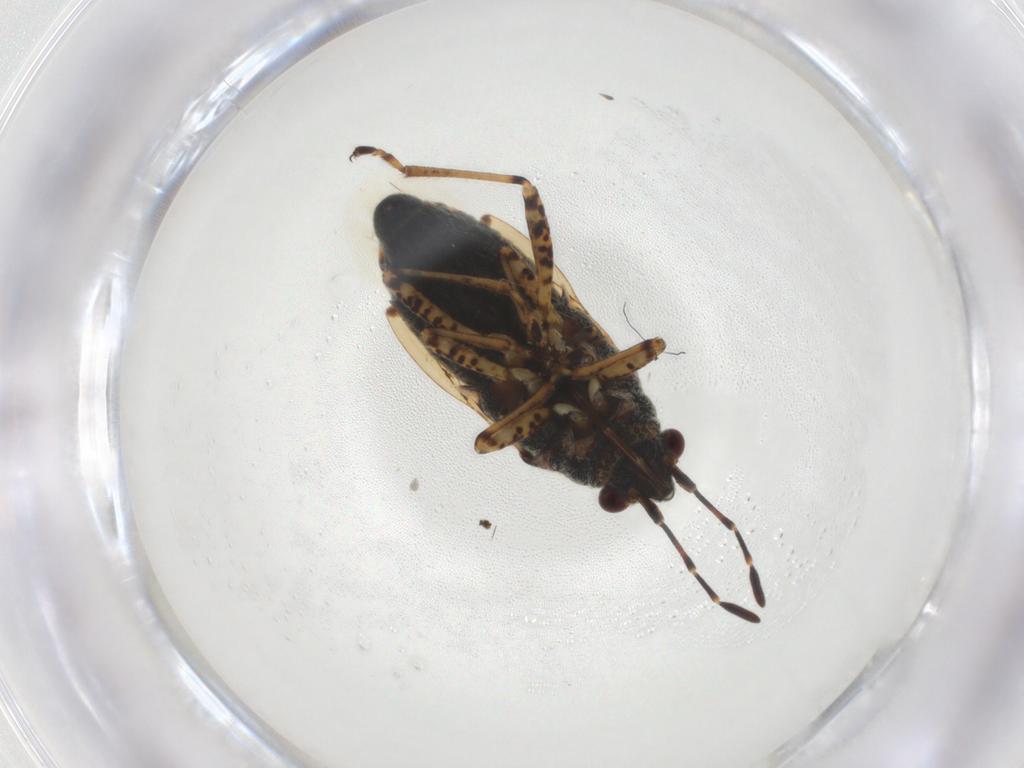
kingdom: Animalia
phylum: Arthropoda
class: Insecta
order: Hemiptera
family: Lygaeidae
